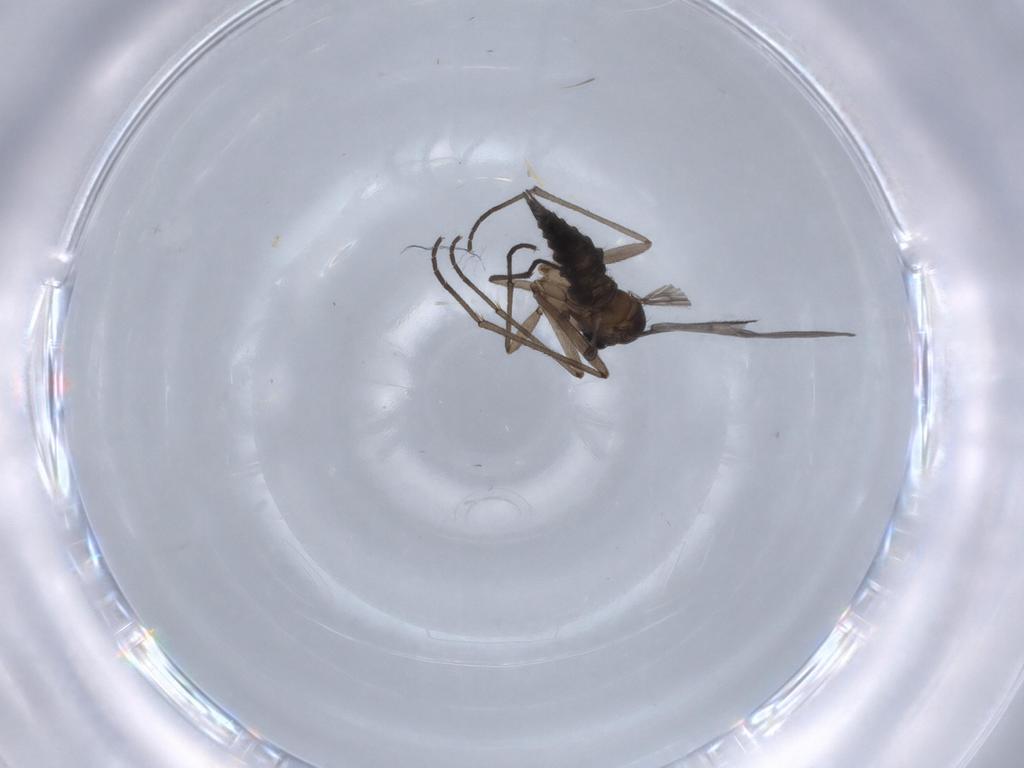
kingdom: Animalia
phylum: Arthropoda
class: Insecta
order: Diptera
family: Sciaridae
